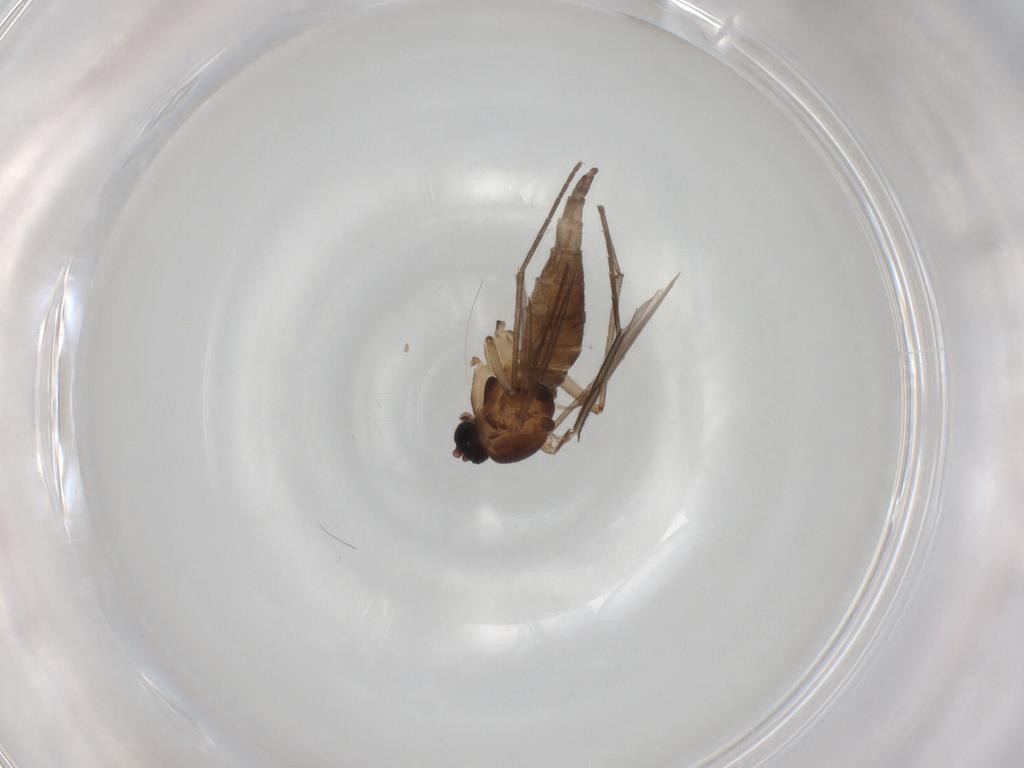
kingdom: Animalia
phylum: Arthropoda
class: Insecta
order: Diptera
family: Sciaridae
